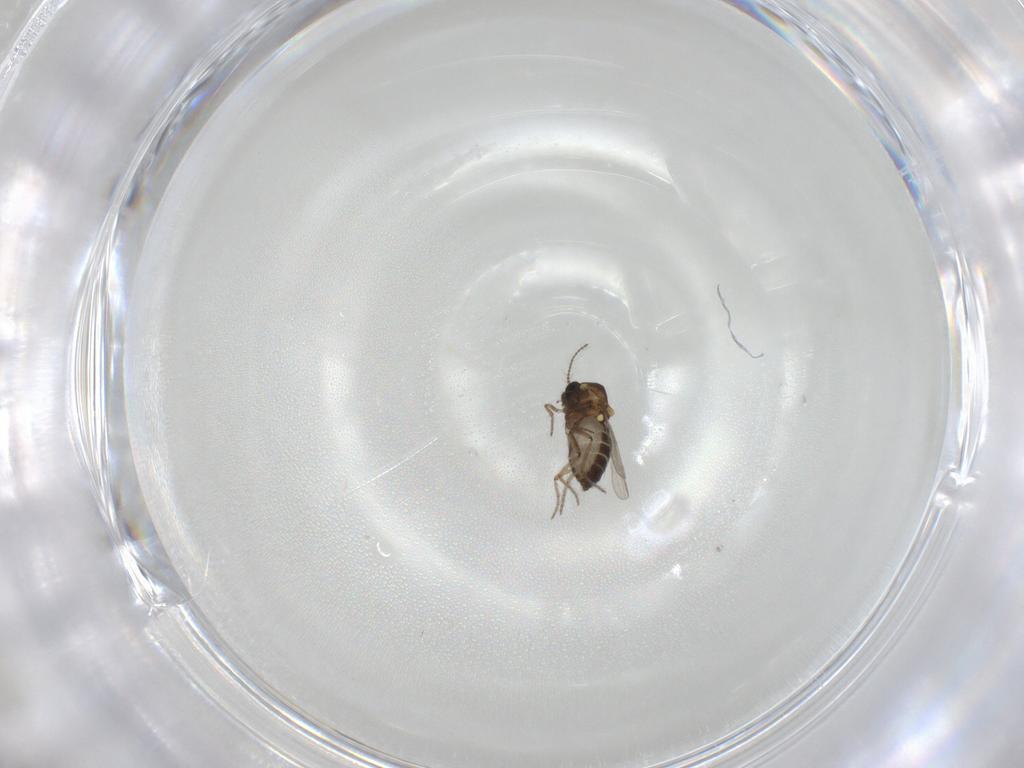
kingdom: Animalia
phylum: Arthropoda
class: Insecta
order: Diptera
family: Ceratopogonidae
